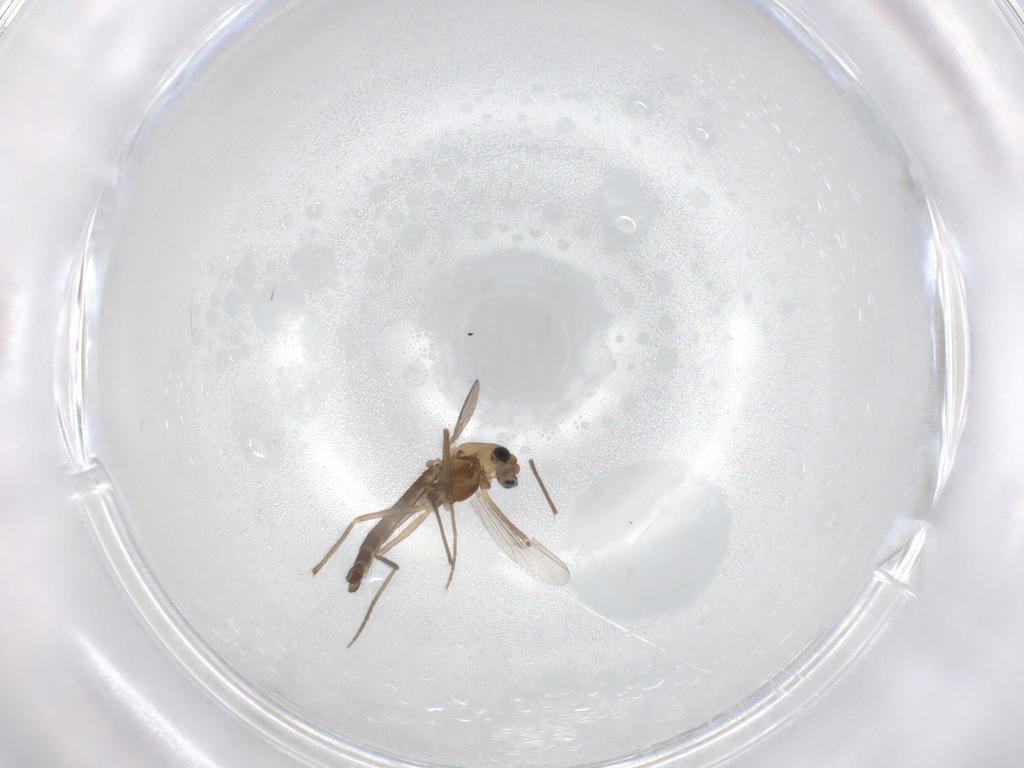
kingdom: Animalia
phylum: Arthropoda
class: Insecta
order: Diptera
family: Chironomidae
